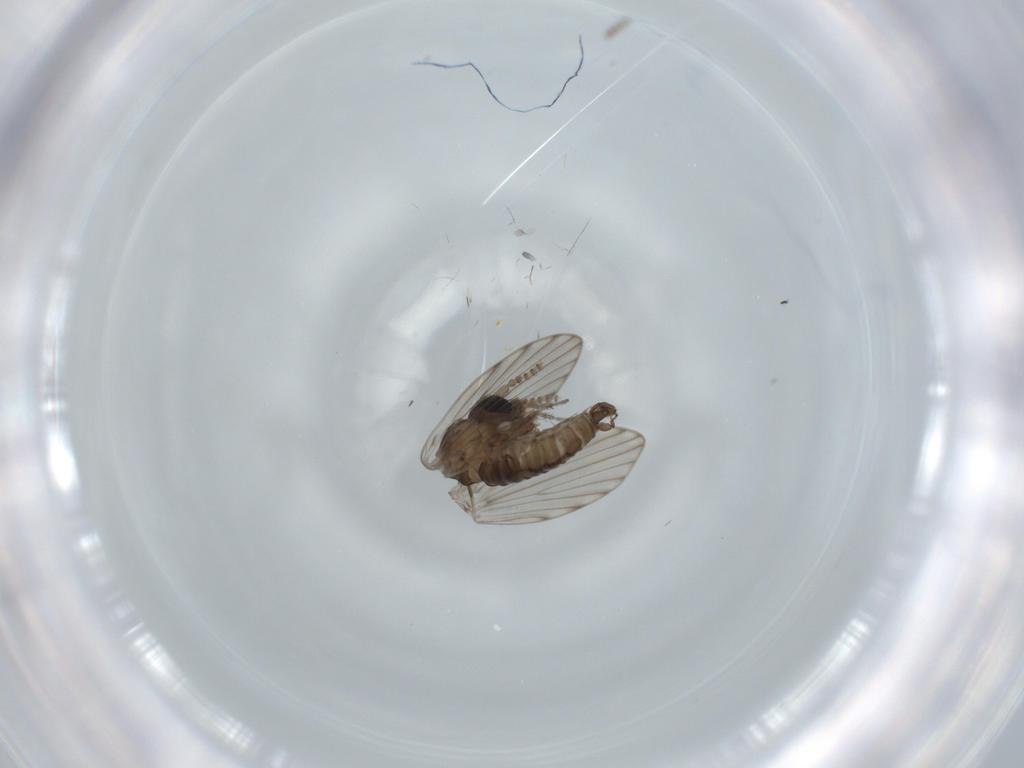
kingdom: Animalia
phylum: Arthropoda
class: Insecta
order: Diptera
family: Psychodidae
